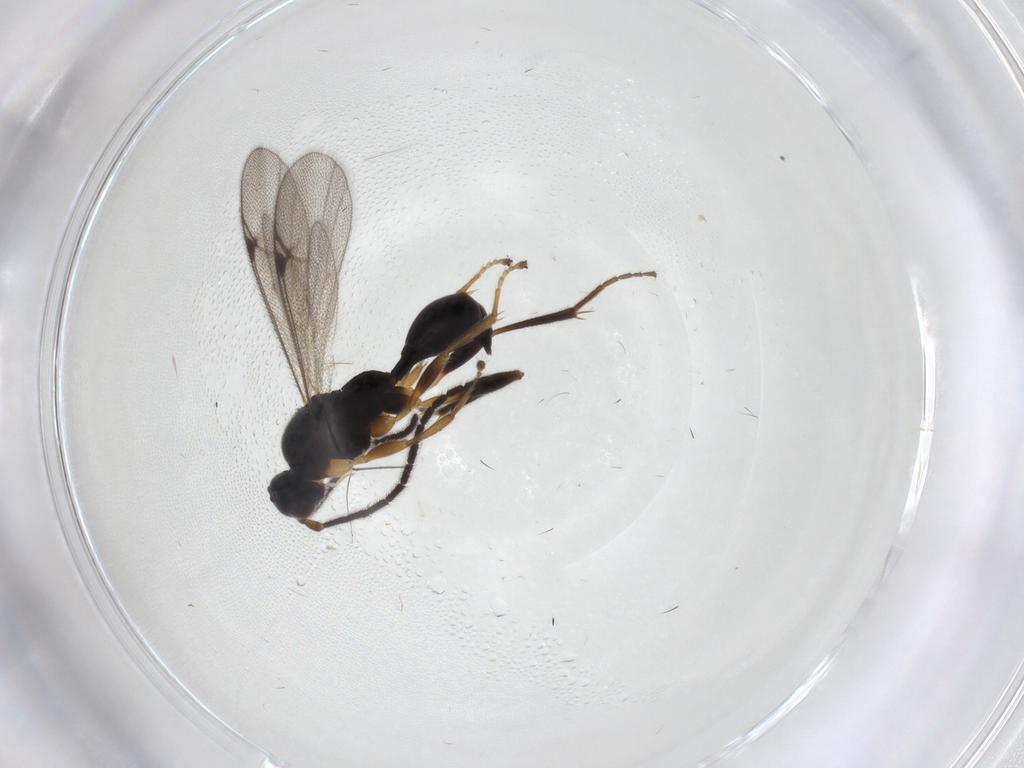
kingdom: Animalia
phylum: Arthropoda
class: Insecta
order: Hymenoptera
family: Proctotrupidae
